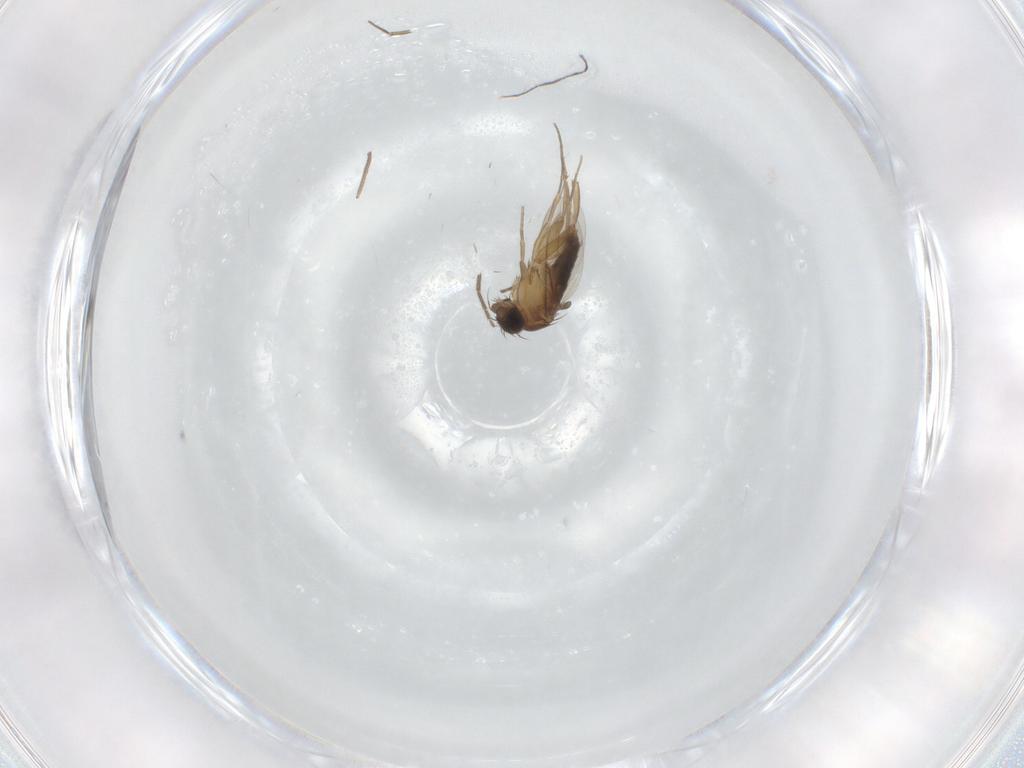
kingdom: Animalia
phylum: Arthropoda
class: Insecta
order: Diptera
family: Phoridae
